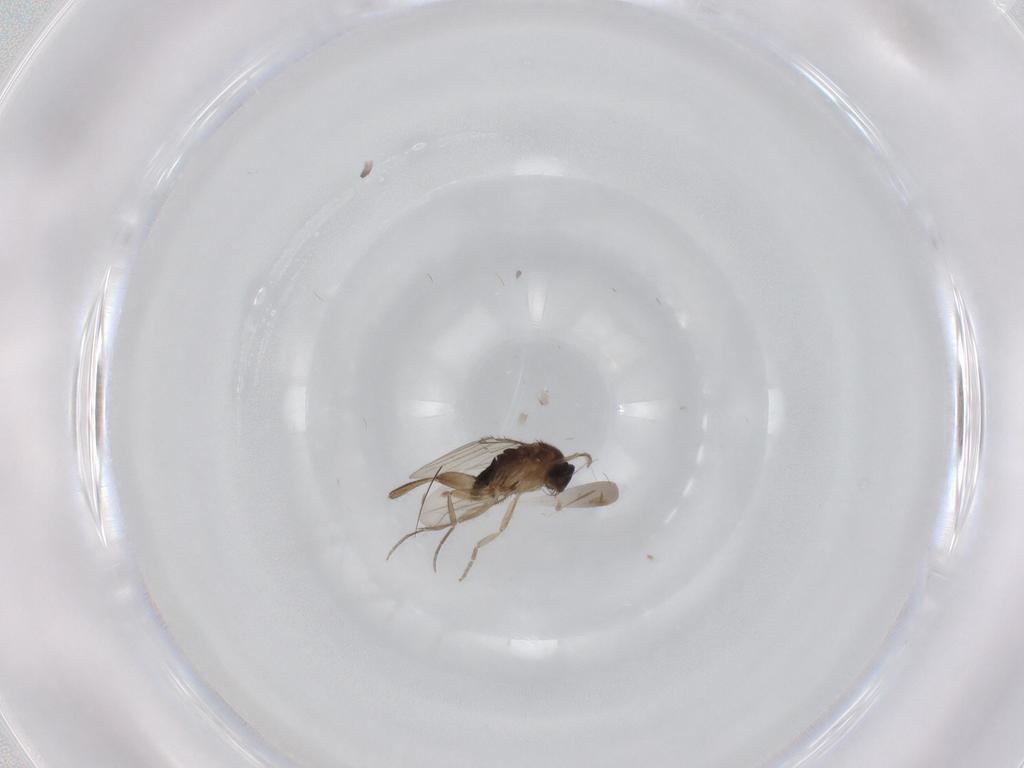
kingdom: Animalia
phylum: Arthropoda
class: Insecta
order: Diptera
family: Phoridae
